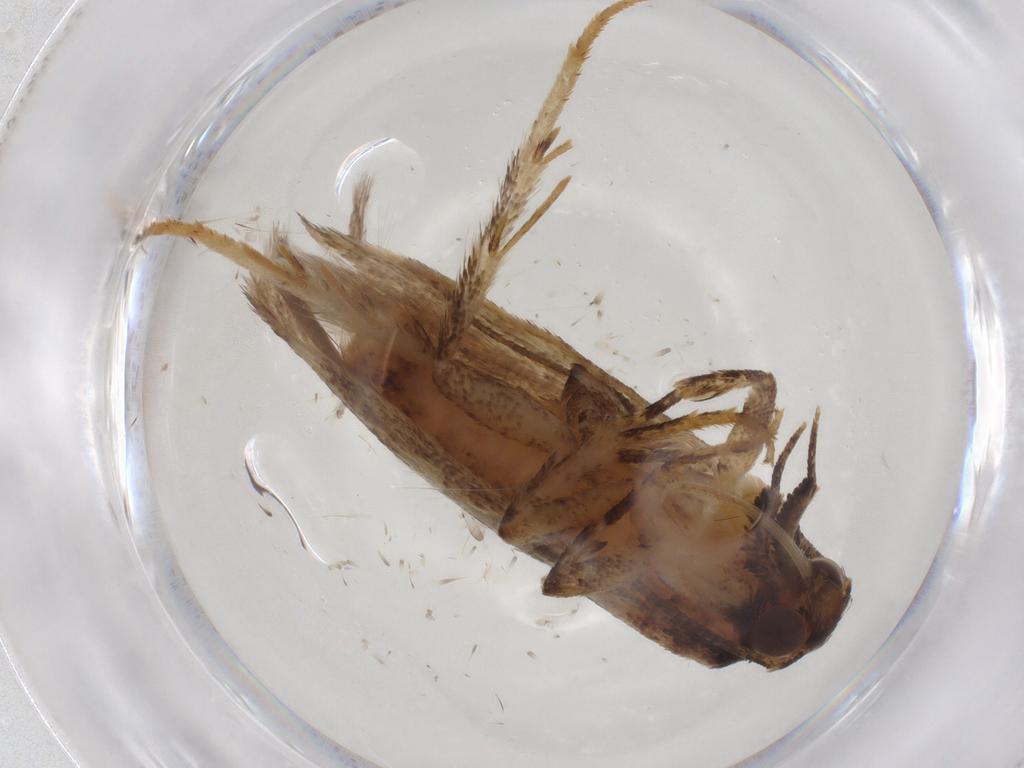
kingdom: Animalia
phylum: Arthropoda
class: Insecta
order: Lepidoptera
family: Gelechiidae
